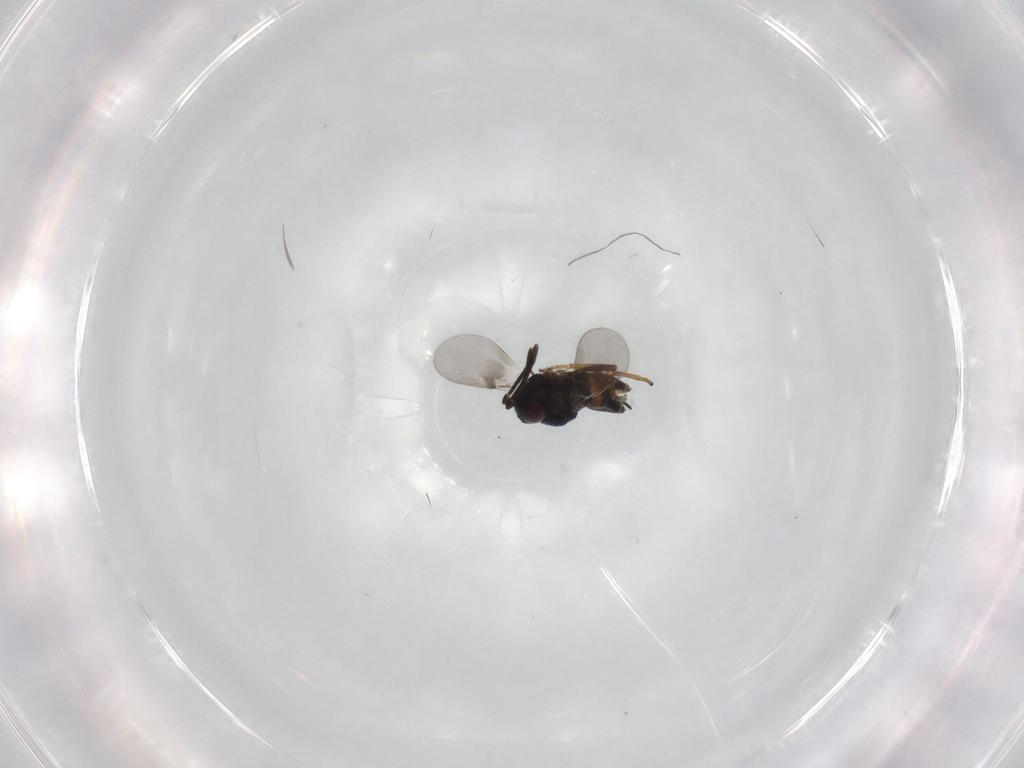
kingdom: Animalia
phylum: Arthropoda
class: Insecta
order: Hymenoptera
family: Encyrtidae
